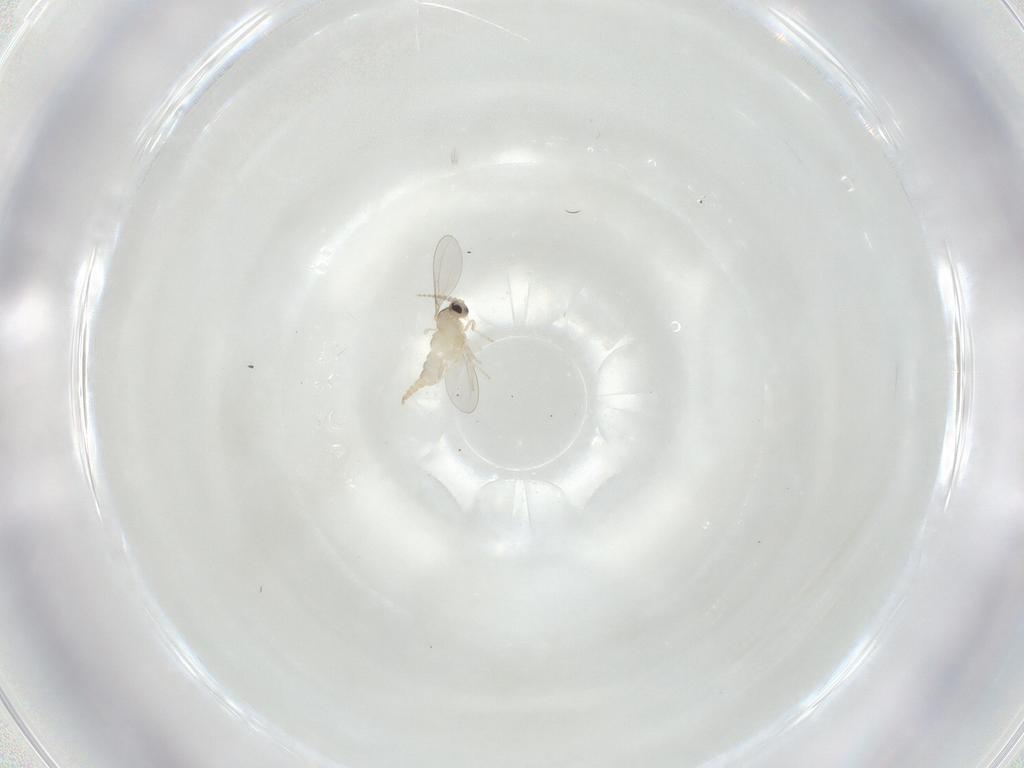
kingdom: Animalia
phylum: Arthropoda
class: Insecta
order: Diptera
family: Cecidomyiidae
